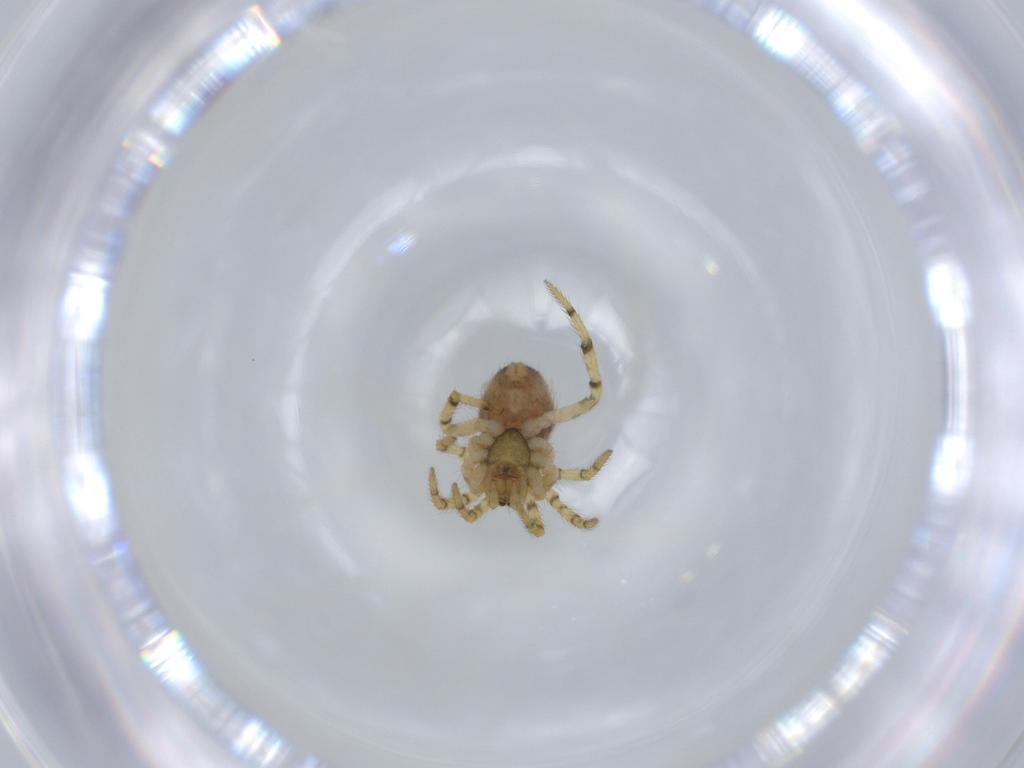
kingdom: Animalia
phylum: Arthropoda
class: Arachnida
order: Araneae
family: Theridiidae
